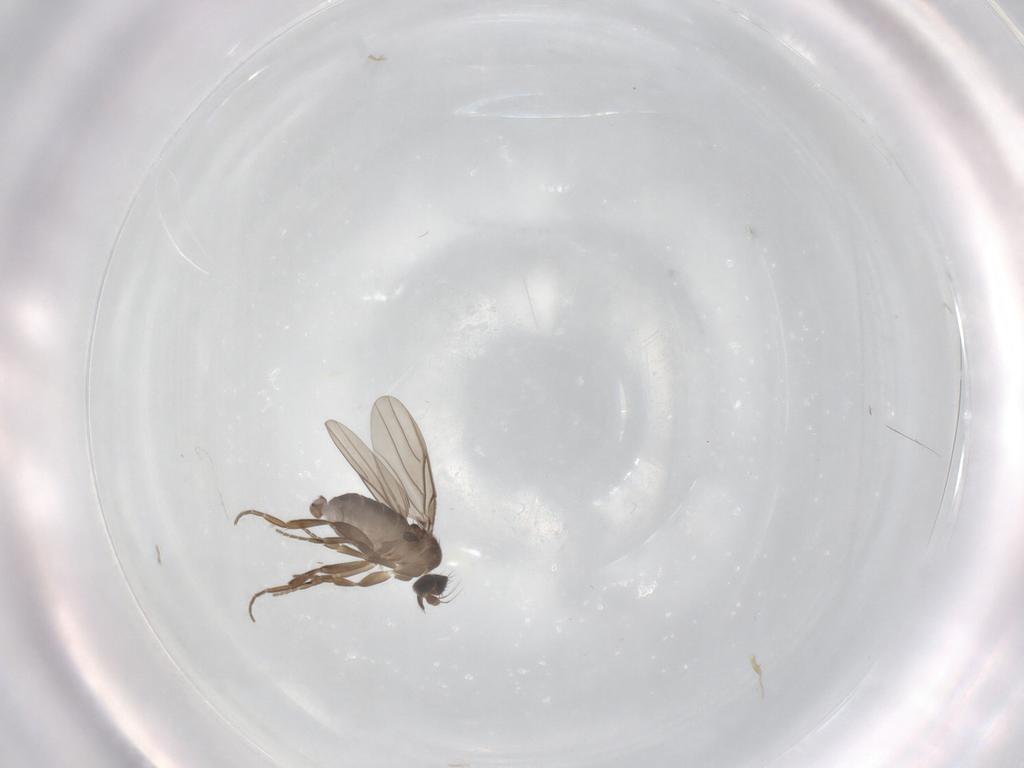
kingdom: Animalia
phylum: Arthropoda
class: Insecta
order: Diptera
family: Phoridae
